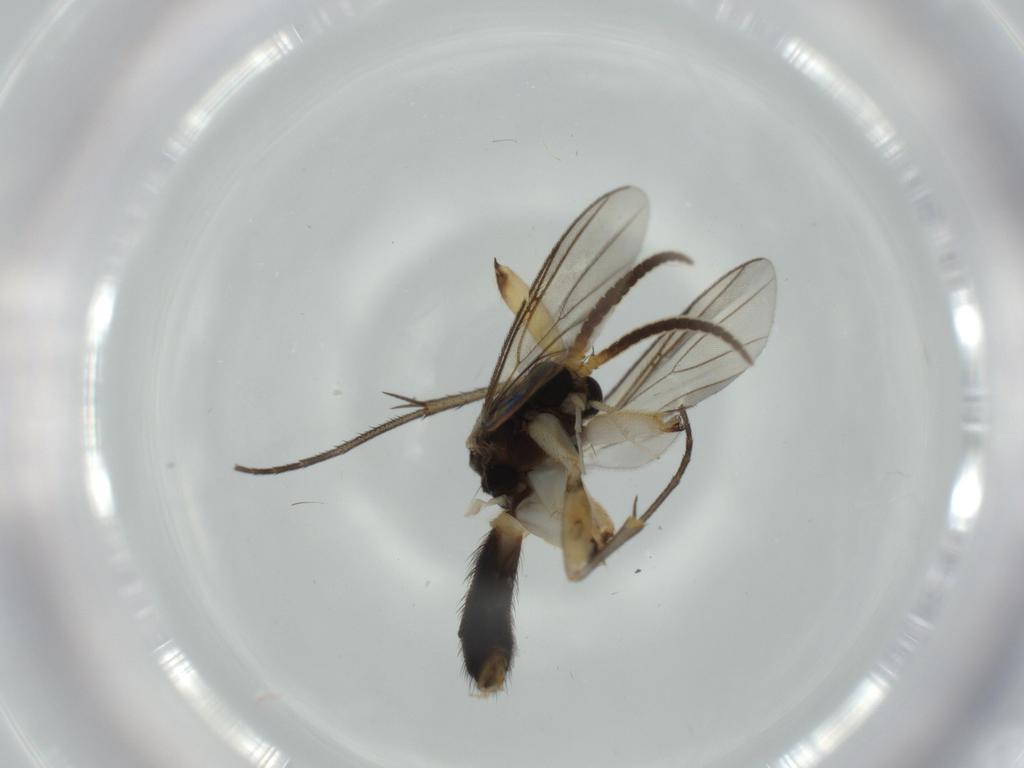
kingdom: Animalia
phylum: Arthropoda
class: Insecta
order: Diptera
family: Mycetophilidae
